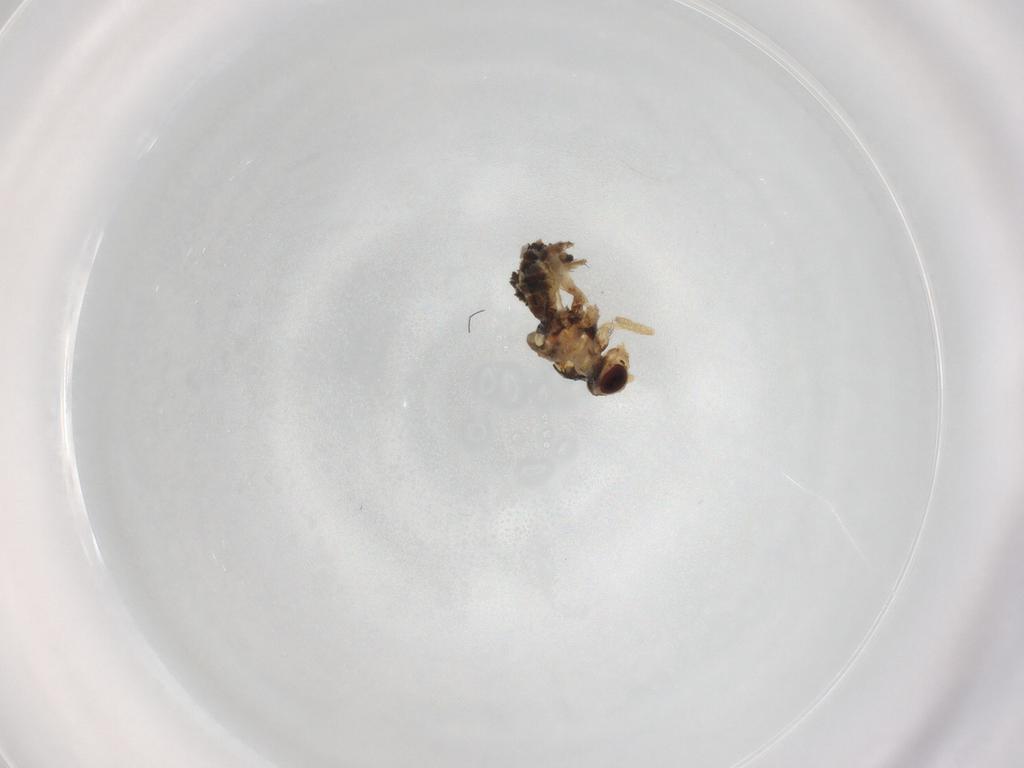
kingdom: Animalia
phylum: Arthropoda
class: Insecta
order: Diptera
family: Agromyzidae
